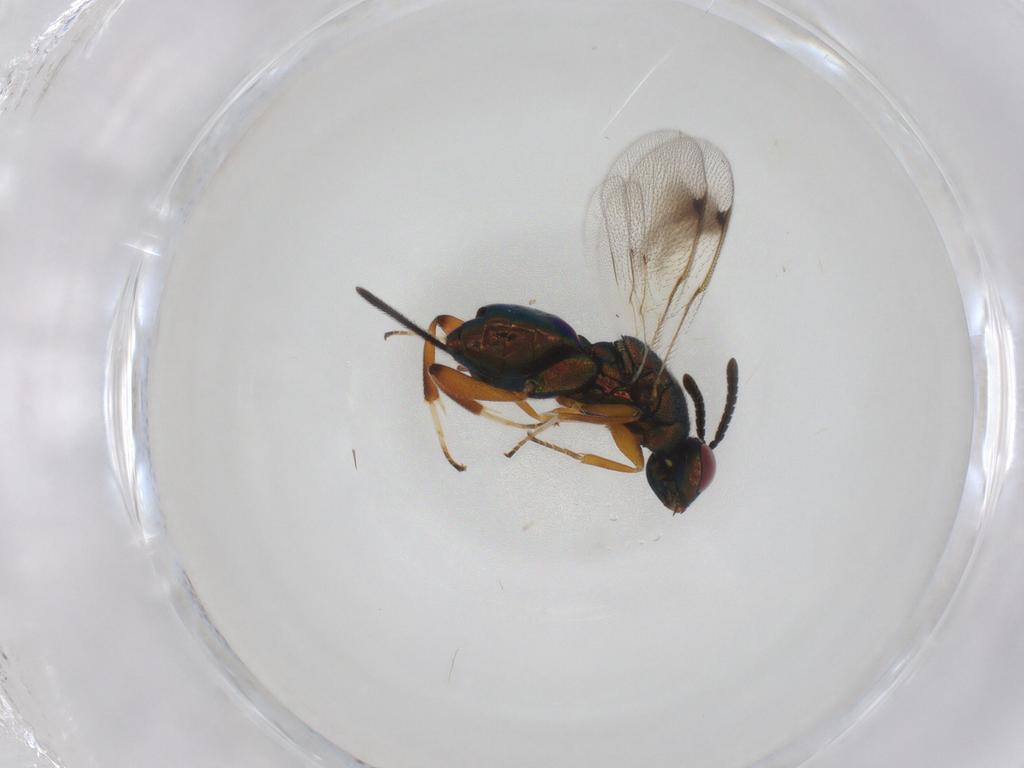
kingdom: Animalia
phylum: Arthropoda
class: Insecta
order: Hymenoptera
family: Torymidae
